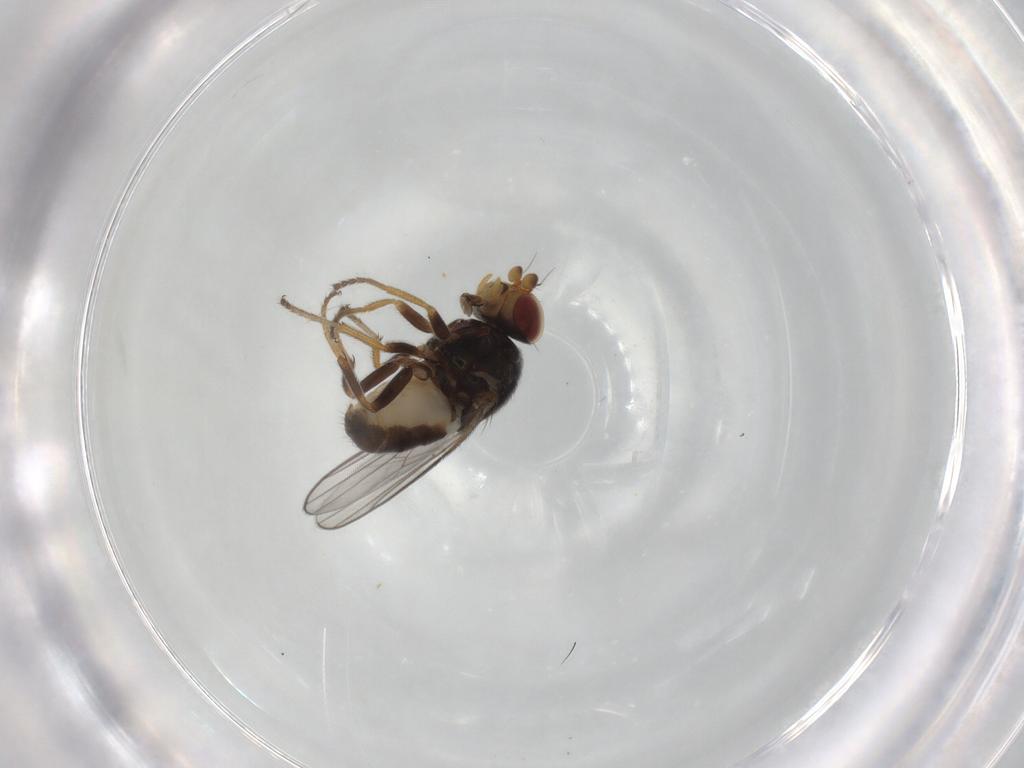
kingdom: Animalia
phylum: Arthropoda
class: Insecta
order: Diptera
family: Chloropidae
